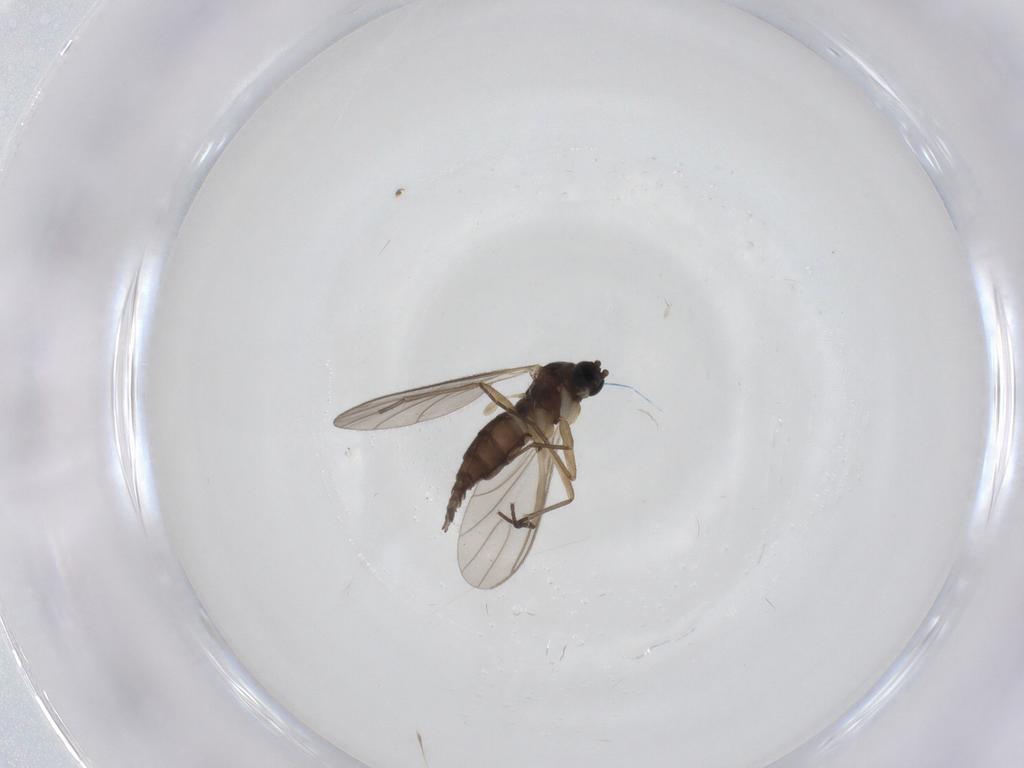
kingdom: Animalia
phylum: Arthropoda
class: Insecta
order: Diptera
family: Sciaridae
